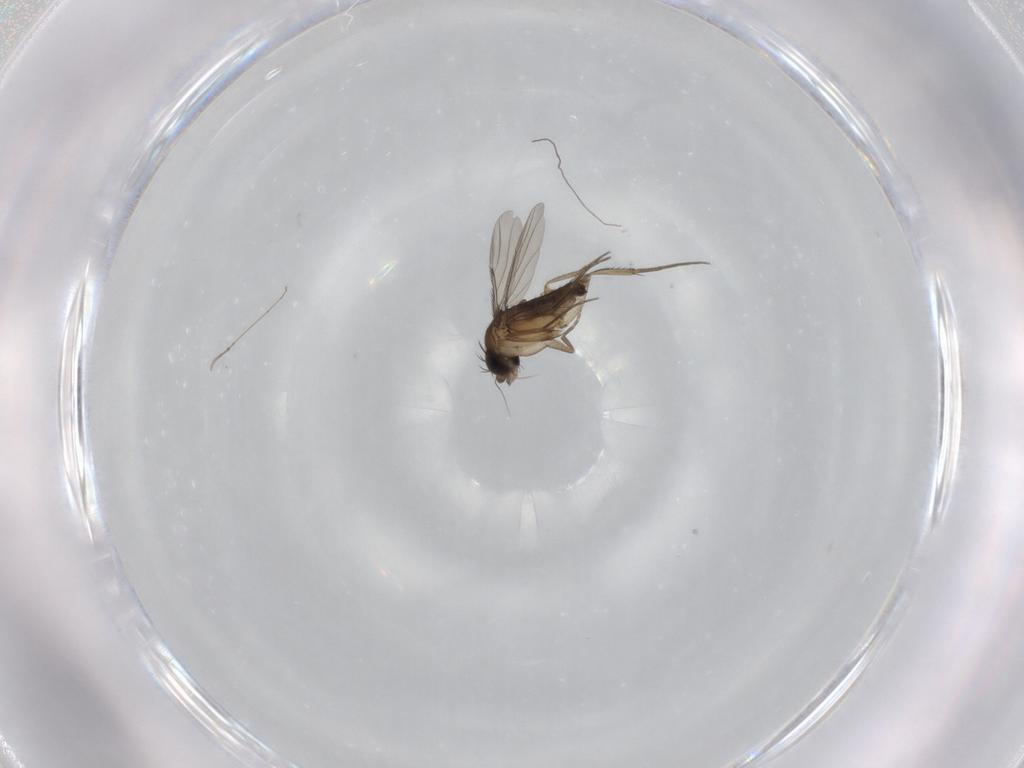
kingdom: Animalia
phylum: Arthropoda
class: Insecta
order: Diptera
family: Phoridae
